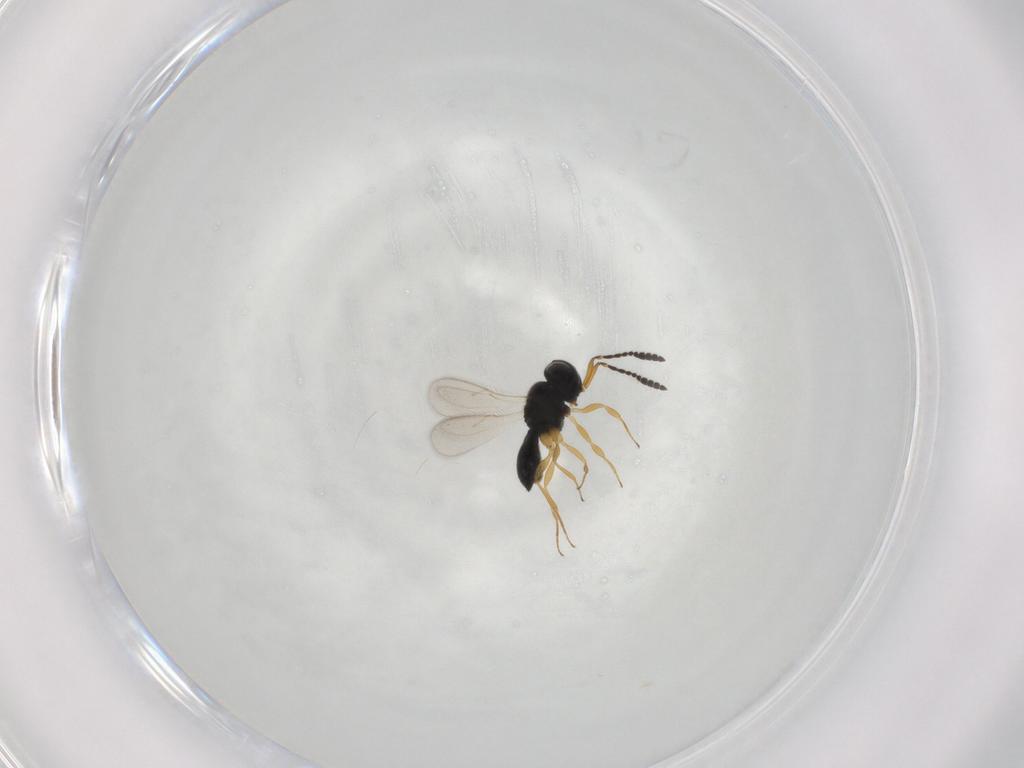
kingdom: Animalia
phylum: Arthropoda
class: Insecta
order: Hymenoptera
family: Scelionidae
